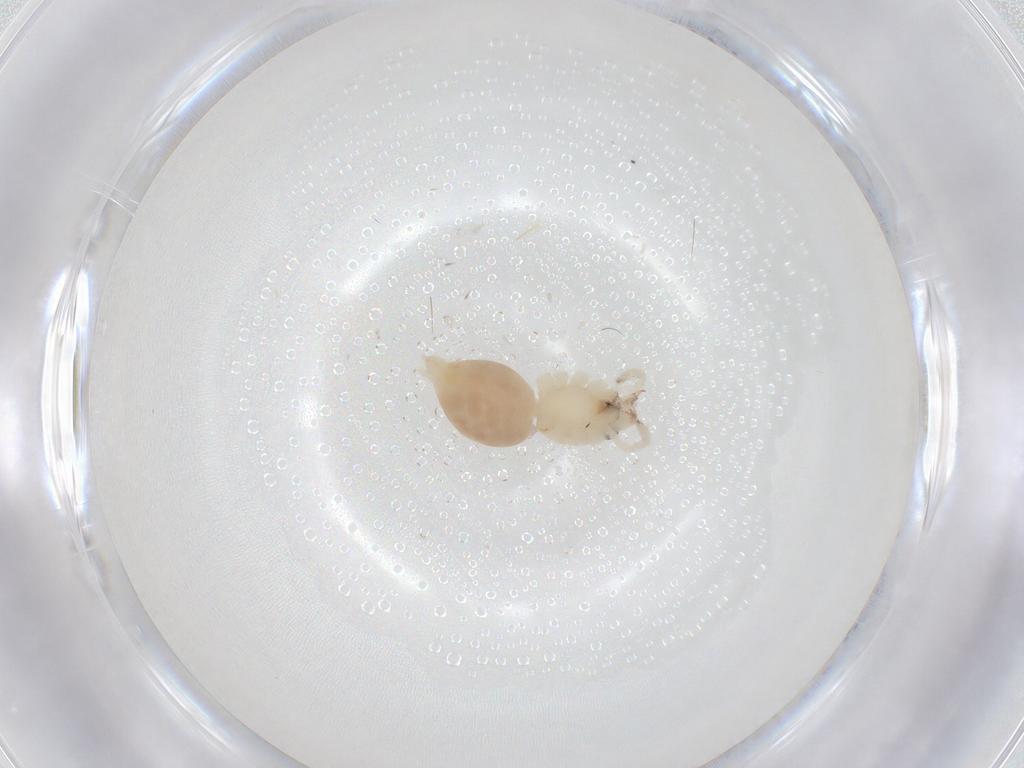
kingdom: Animalia
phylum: Arthropoda
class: Arachnida
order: Araneae
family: Anyphaenidae
